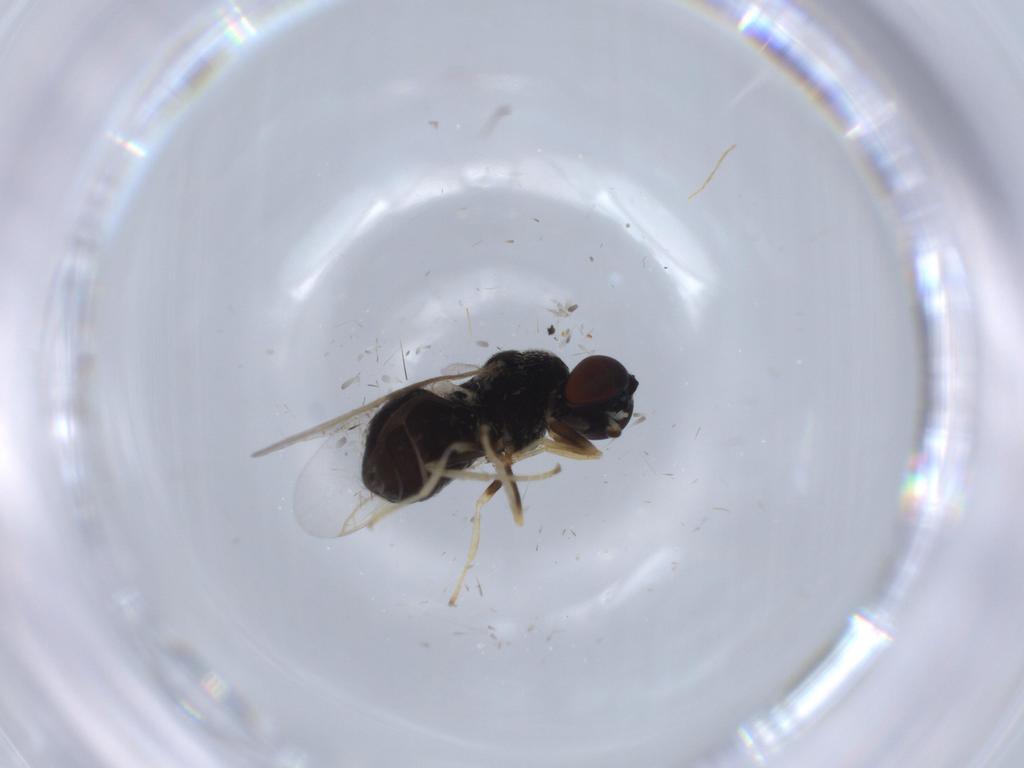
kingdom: Animalia
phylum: Arthropoda
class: Insecta
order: Diptera
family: Stratiomyidae
